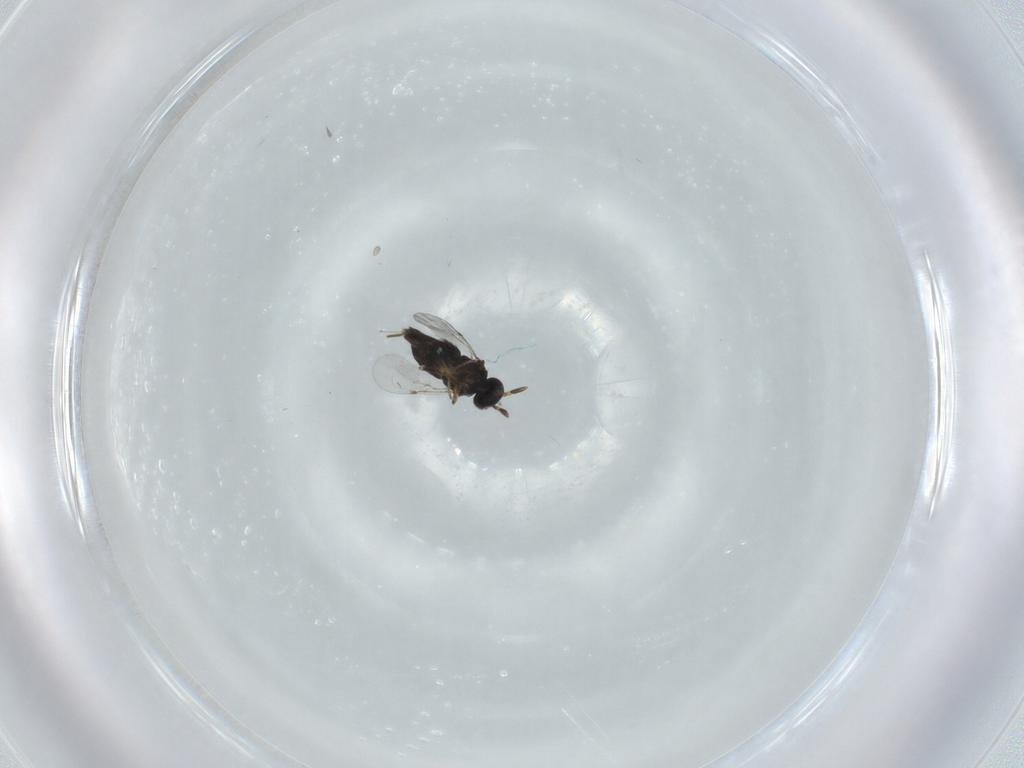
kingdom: Animalia
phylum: Arthropoda
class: Insecta
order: Hymenoptera
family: Encyrtidae
